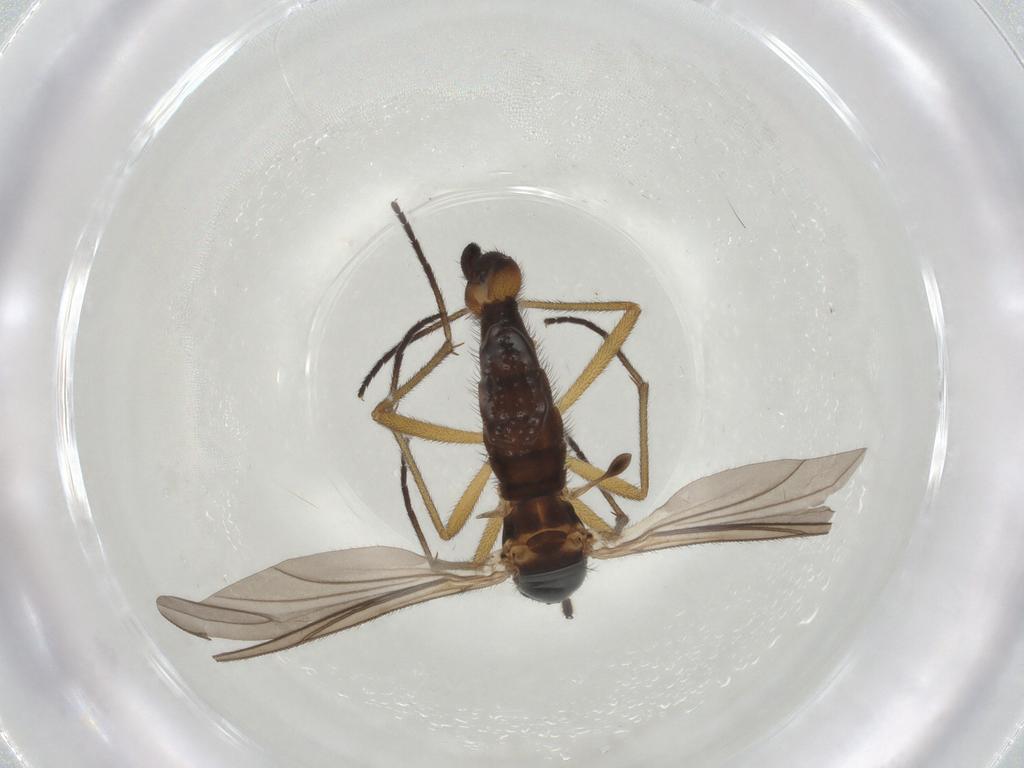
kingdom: Animalia
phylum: Arthropoda
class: Insecta
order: Diptera
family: Sciaridae
